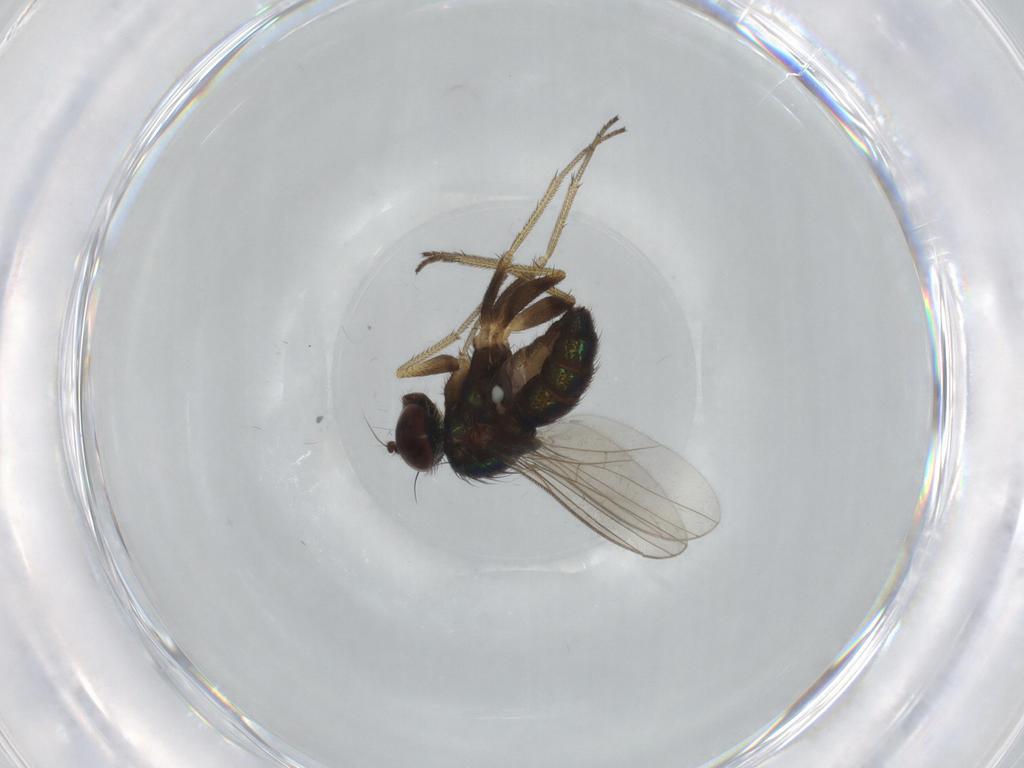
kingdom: Animalia
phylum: Arthropoda
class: Insecta
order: Diptera
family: Dolichopodidae
